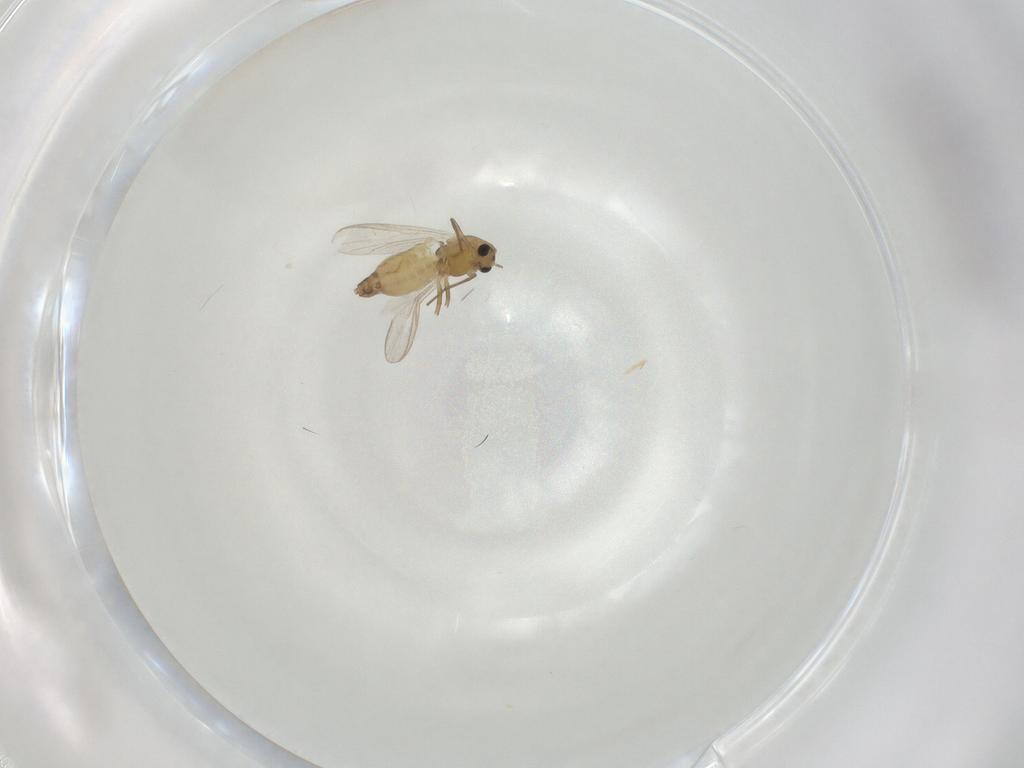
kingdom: Animalia
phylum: Arthropoda
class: Insecta
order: Diptera
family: Chironomidae
